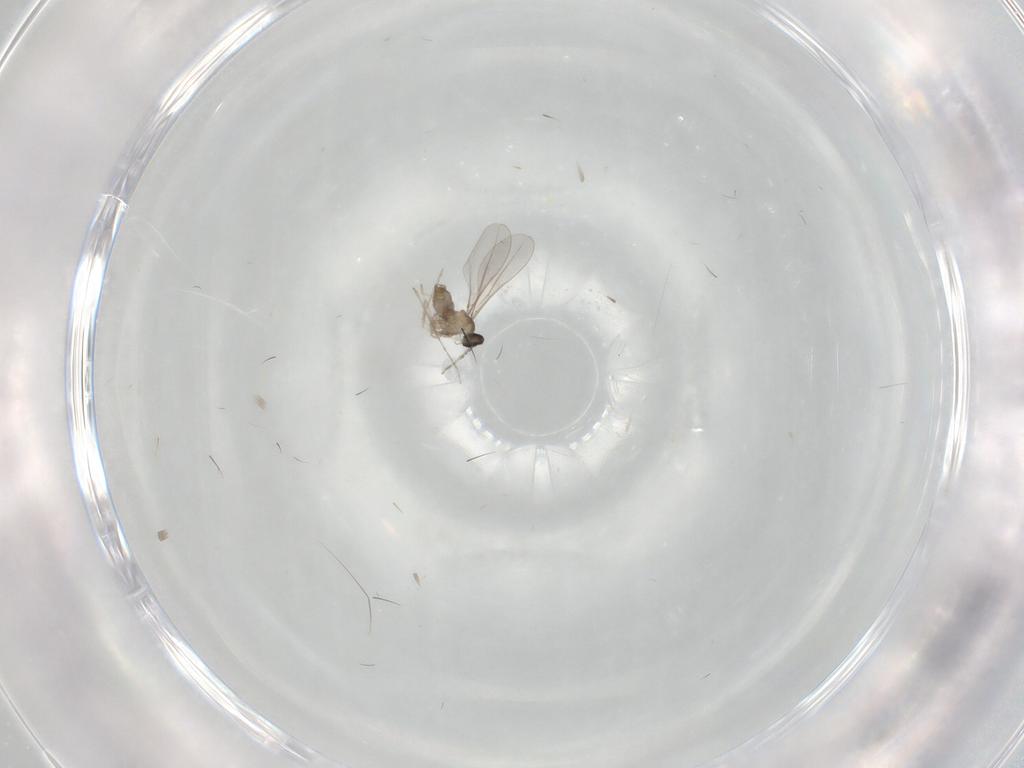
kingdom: Animalia
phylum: Arthropoda
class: Insecta
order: Diptera
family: Cecidomyiidae
